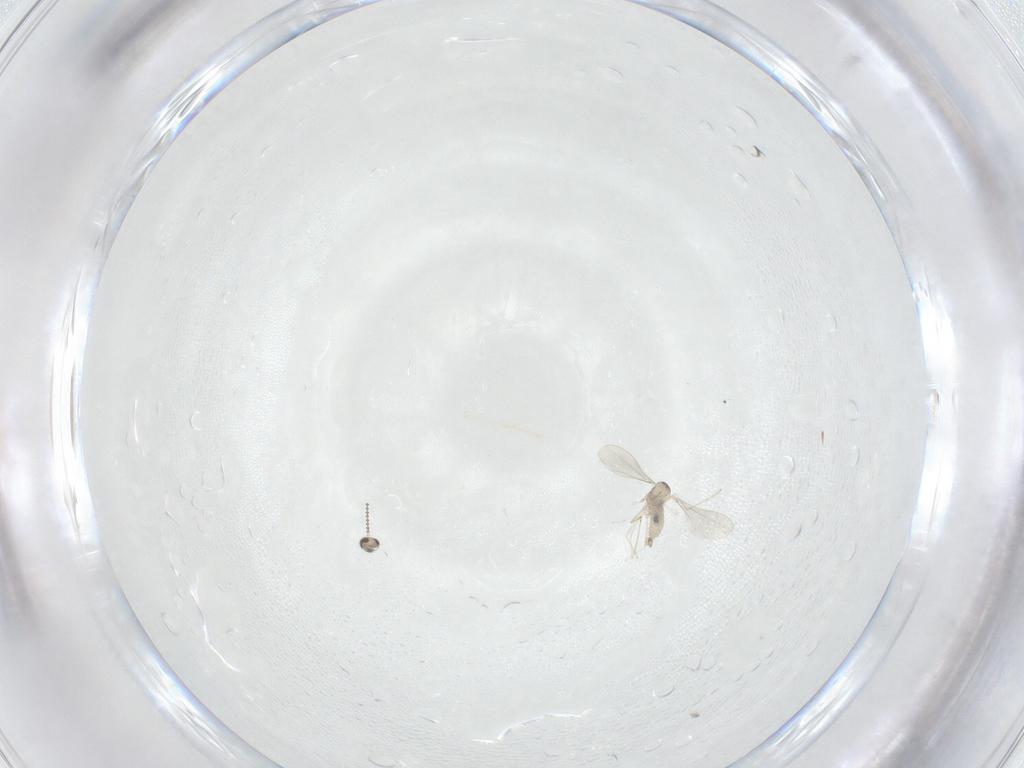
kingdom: Animalia
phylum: Arthropoda
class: Insecta
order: Diptera
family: Cecidomyiidae
